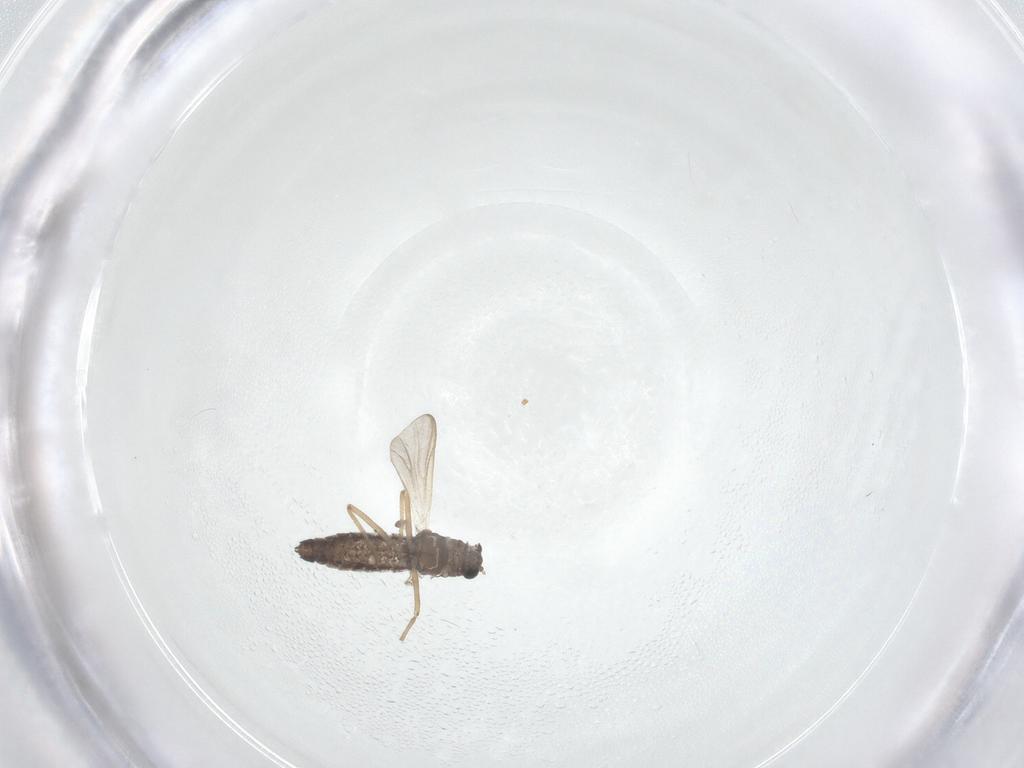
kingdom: Animalia
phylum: Arthropoda
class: Insecta
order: Diptera
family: Chironomidae
